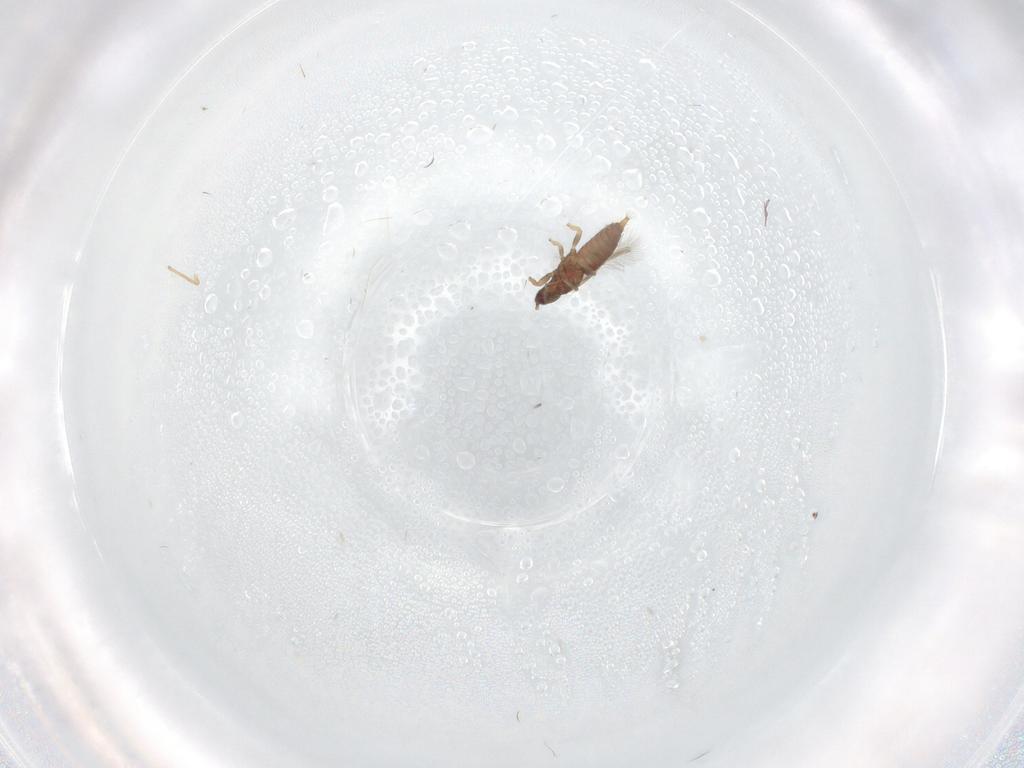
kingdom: Animalia
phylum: Arthropoda
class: Insecta
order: Thysanoptera
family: Phlaeothripidae
